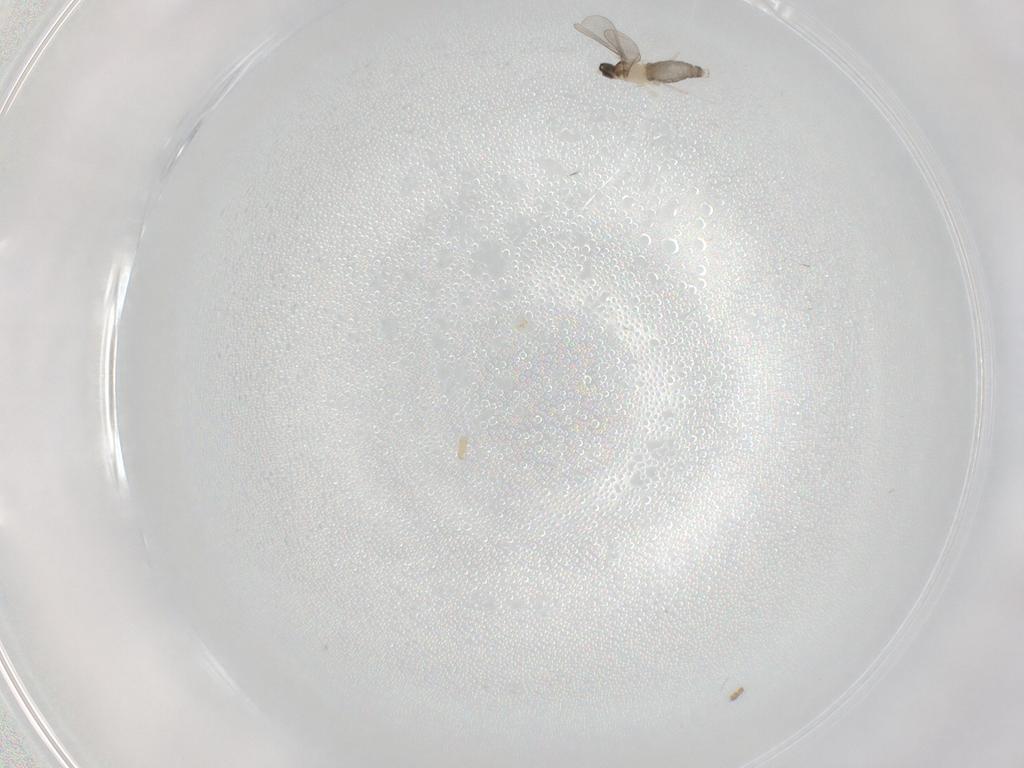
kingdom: Animalia
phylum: Arthropoda
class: Insecta
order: Diptera
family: Cecidomyiidae
